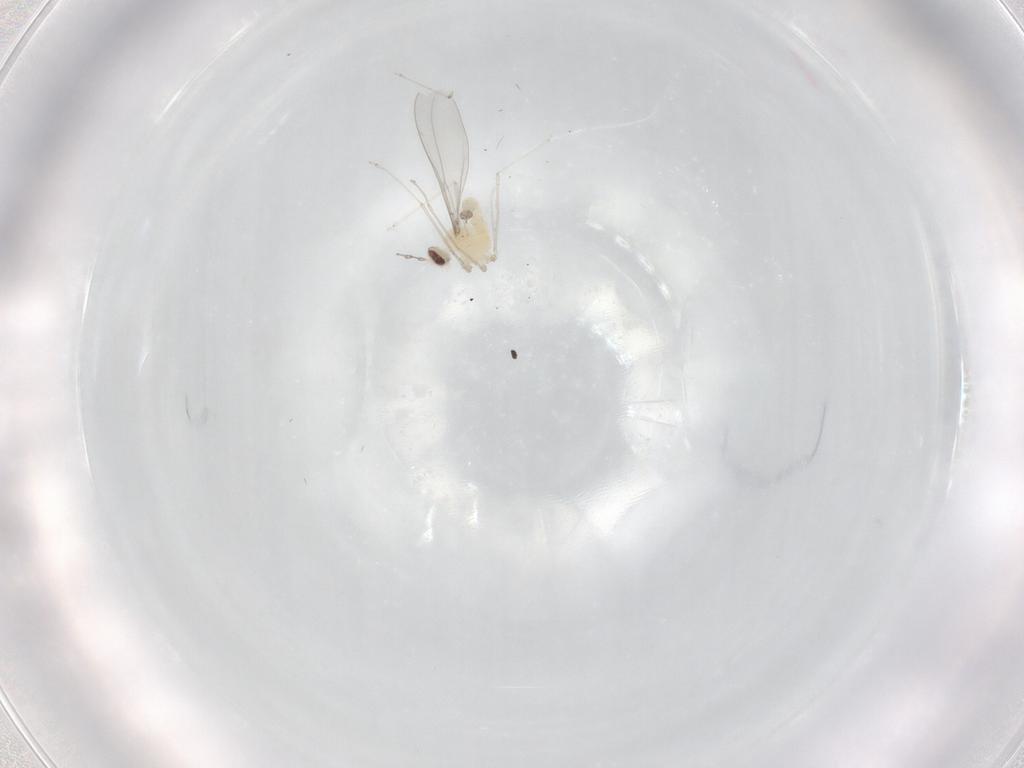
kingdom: Animalia
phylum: Arthropoda
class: Insecta
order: Diptera
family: Cecidomyiidae
